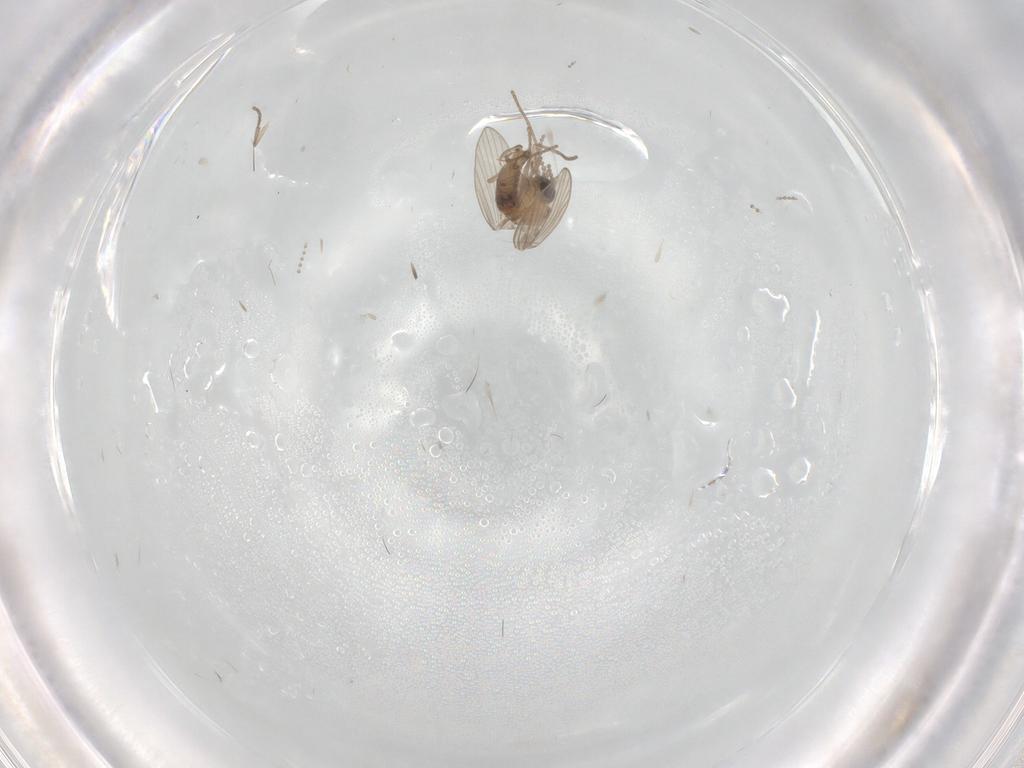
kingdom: Animalia
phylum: Arthropoda
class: Insecta
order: Diptera
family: Psychodidae
